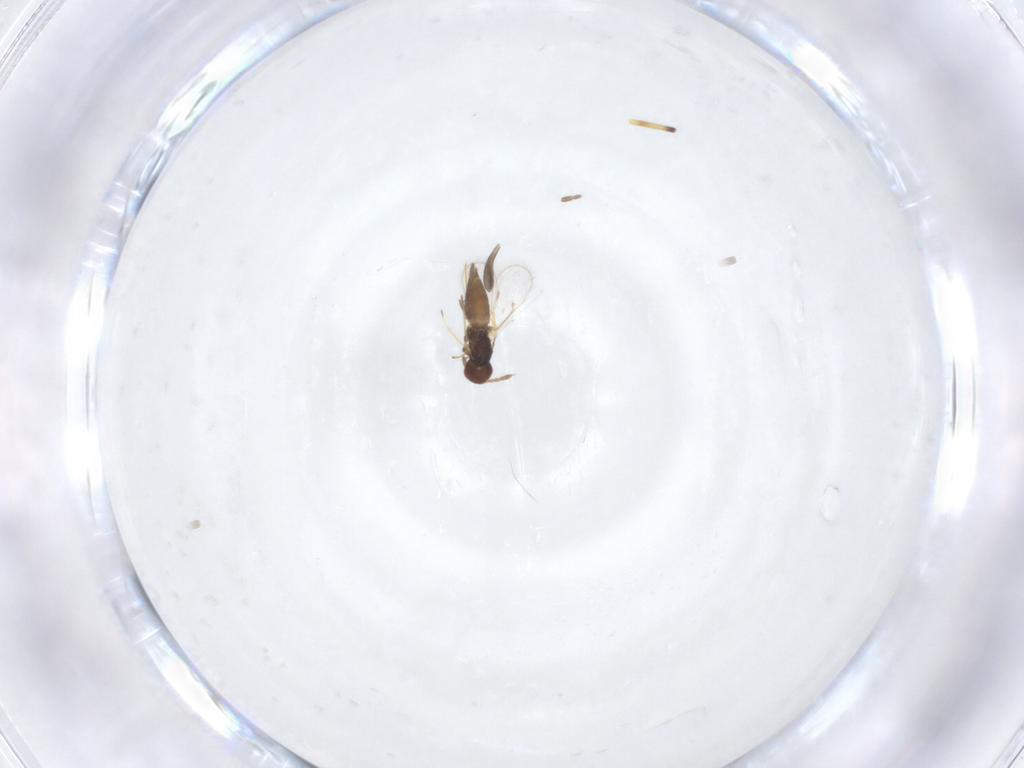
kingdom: Animalia
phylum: Arthropoda
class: Insecta
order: Diptera
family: Phoridae
